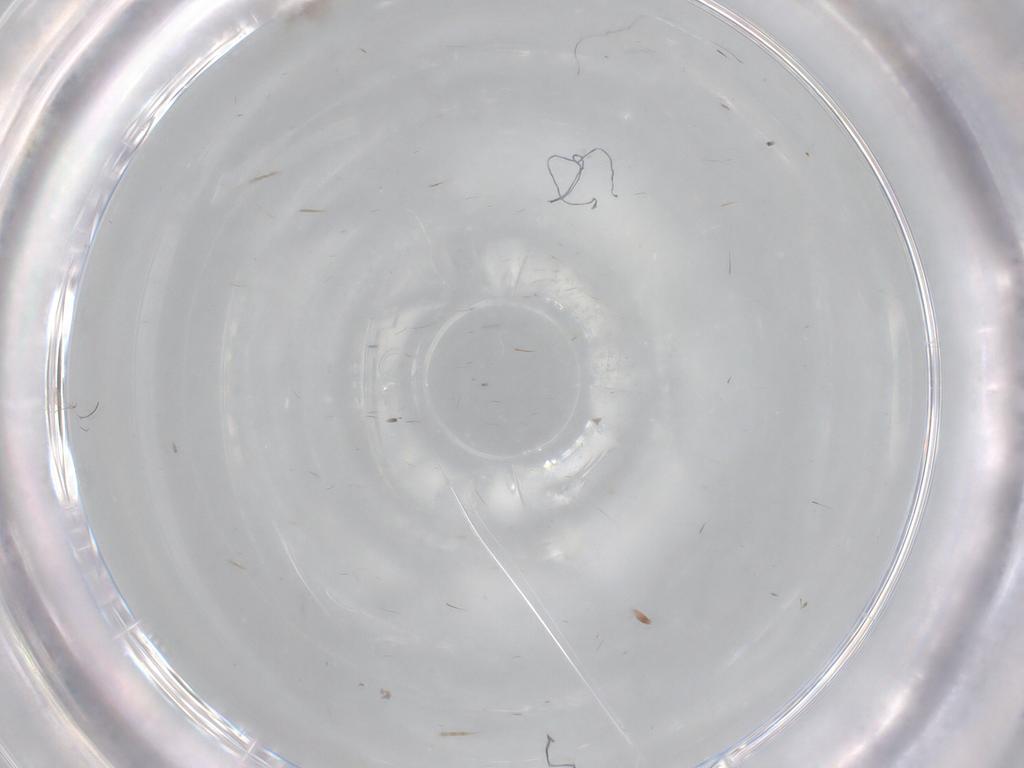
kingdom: Animalia
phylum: Arthropoda
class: Insecta
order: Diptera
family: Cecidomyiidae
